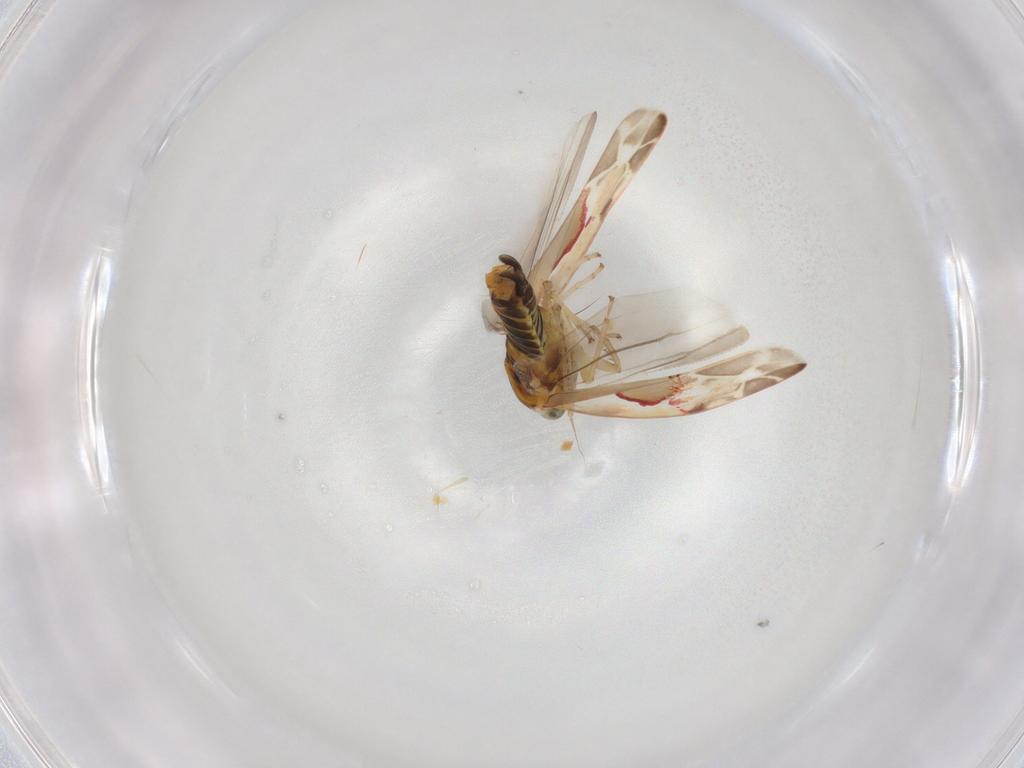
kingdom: Animalia
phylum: Arthropoda
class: Insecta
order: Hemiptera
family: Cicadellidae
